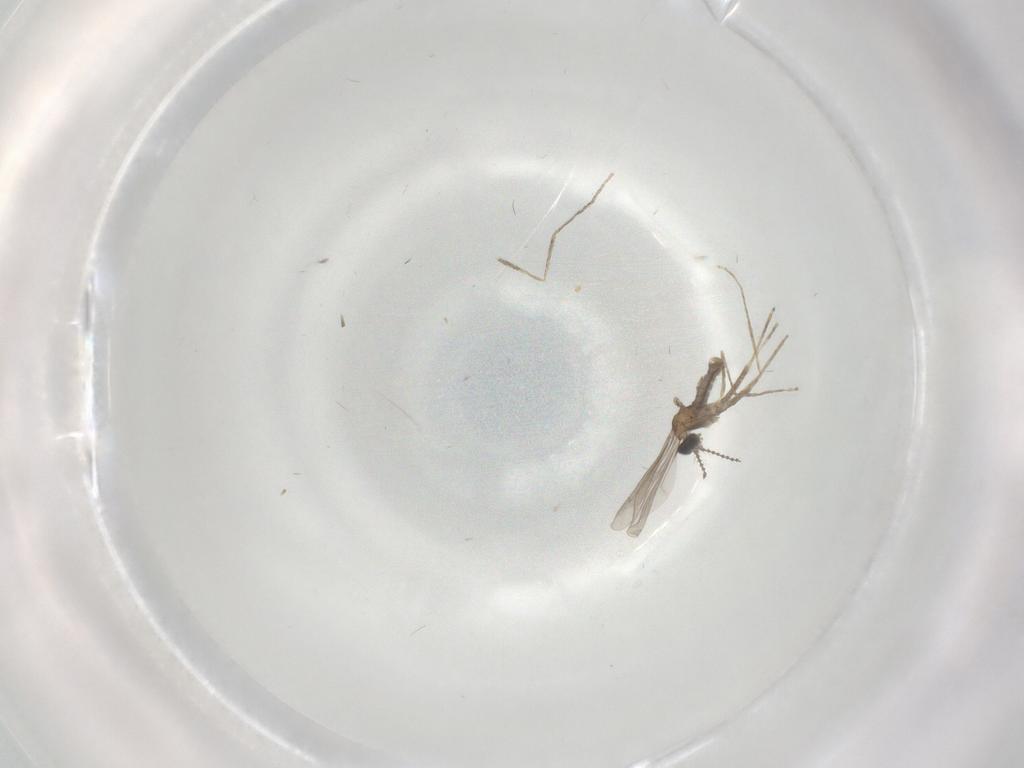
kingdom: Animalia
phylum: Arthropoda
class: Insecta
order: Diptera
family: Cecidomyiidae
